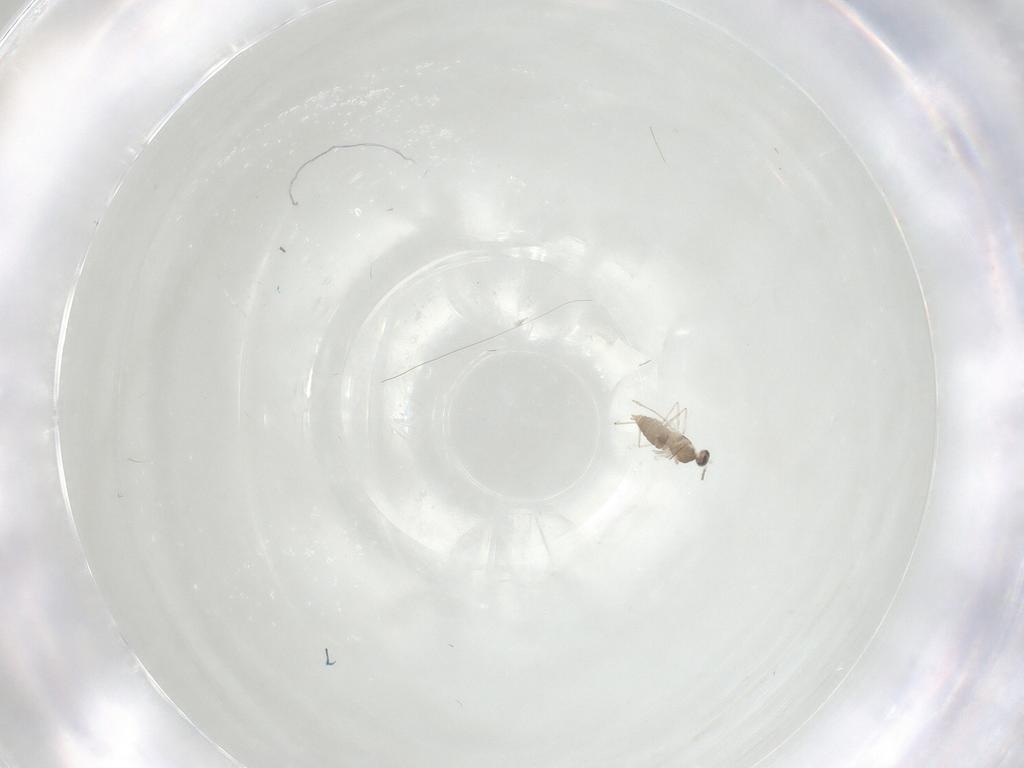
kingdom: Animalia
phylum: Arthropoda
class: Insecta
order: Diptera
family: Cecidomyiidae
